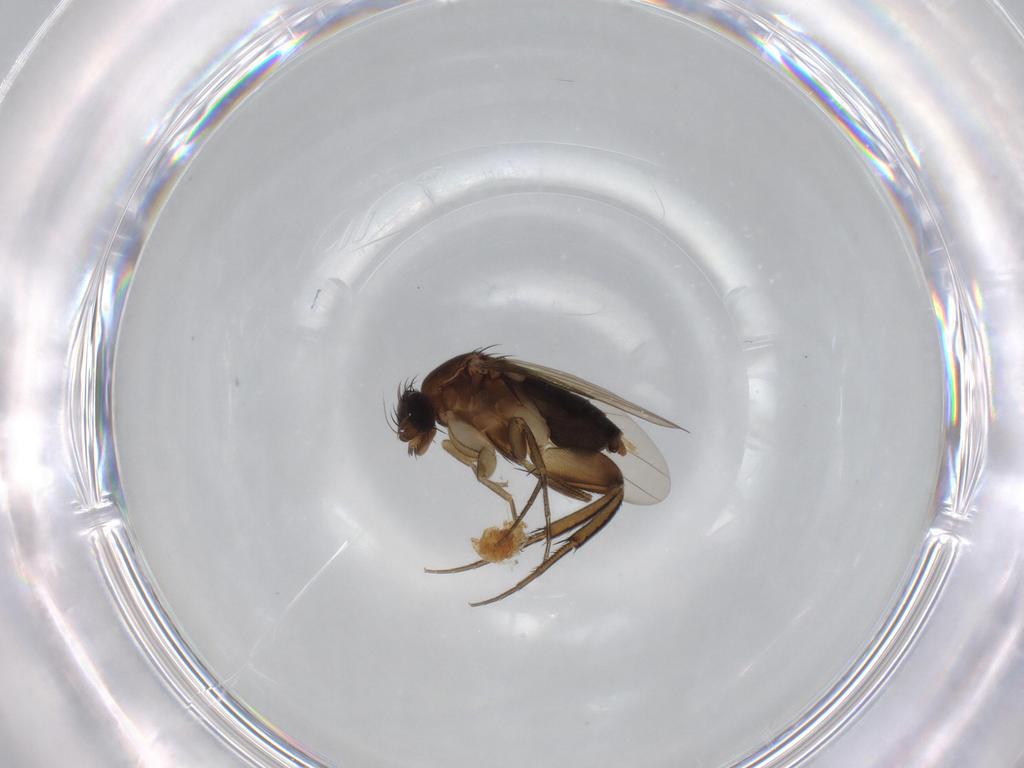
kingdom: Animalia
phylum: Arthropoda
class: Insecta
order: Diptera
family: Phoridae
